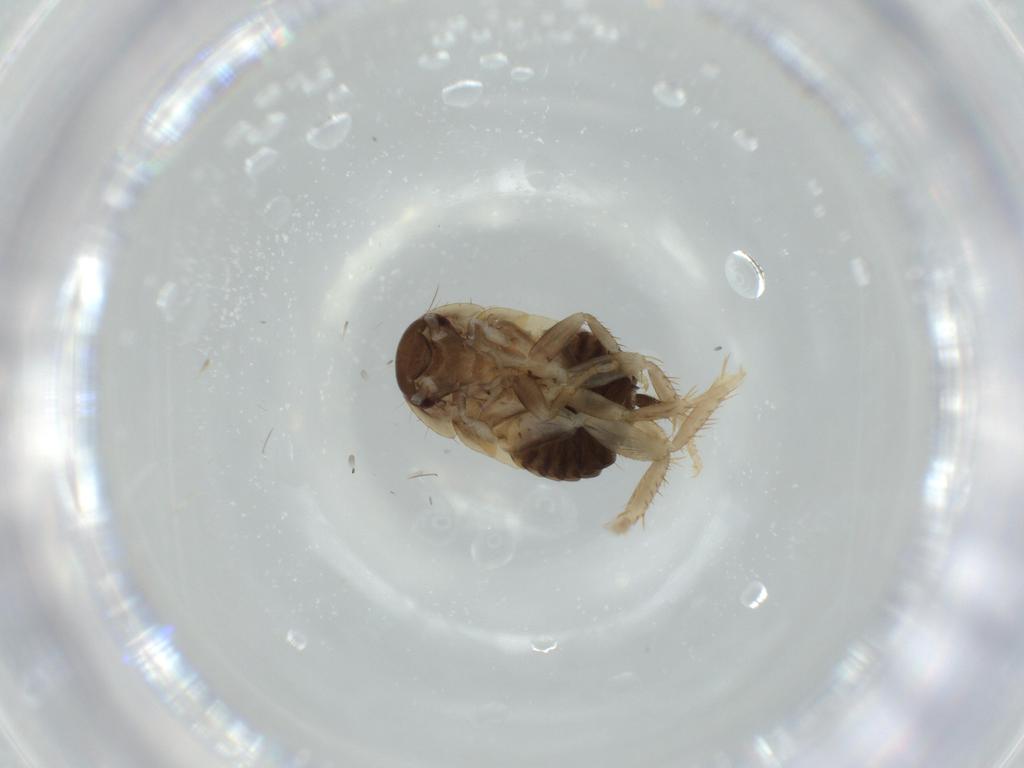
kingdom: Animalia
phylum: Arthropoda
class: Insecta
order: Blattodea
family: Ectobiidae
